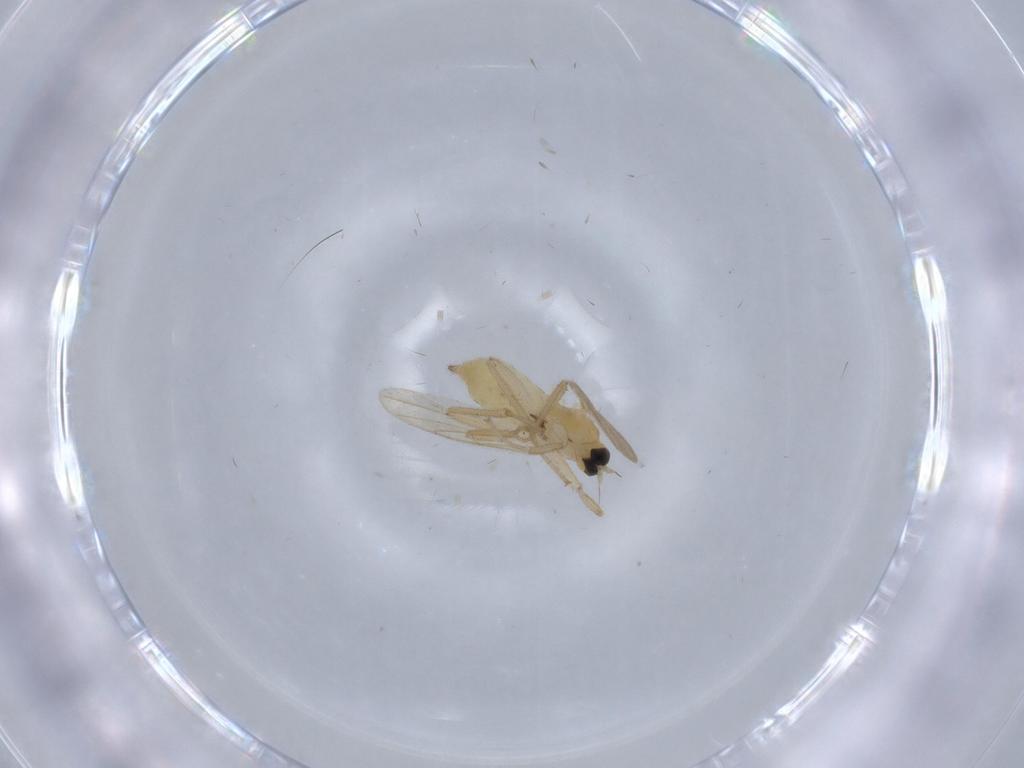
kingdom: Animalia
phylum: Arthropoda
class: Insecta
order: Diptera
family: Hybotidae
